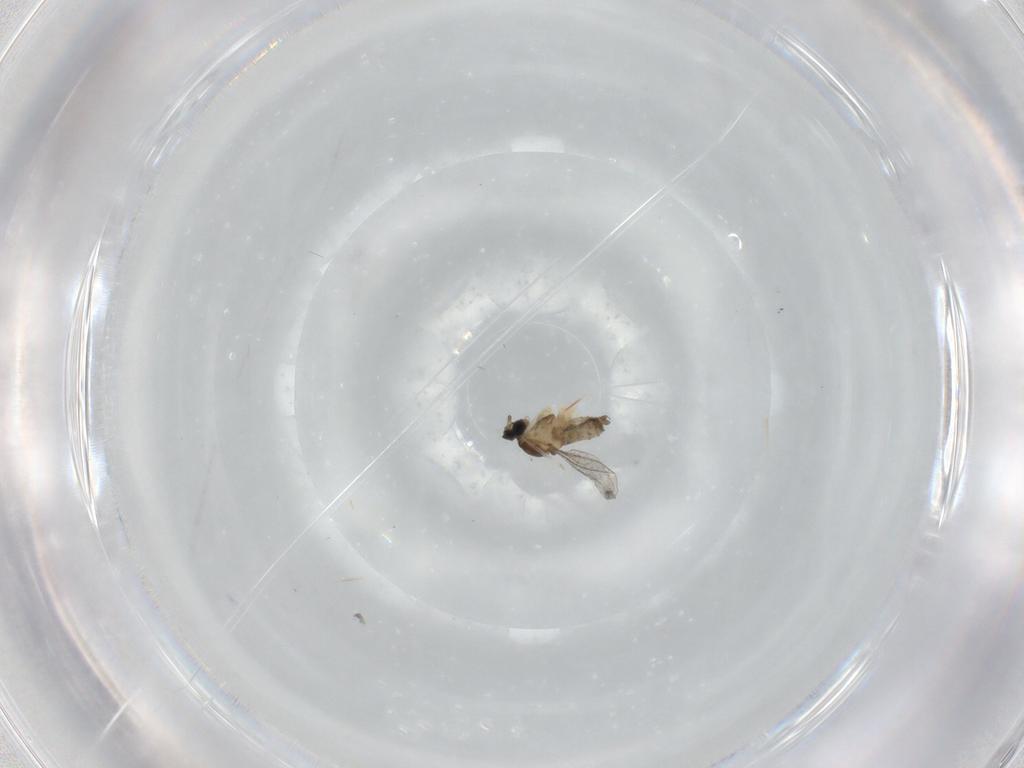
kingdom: Animalia
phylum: Arthropoda
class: Insecta
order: Diptera
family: Cecidomyiidae
